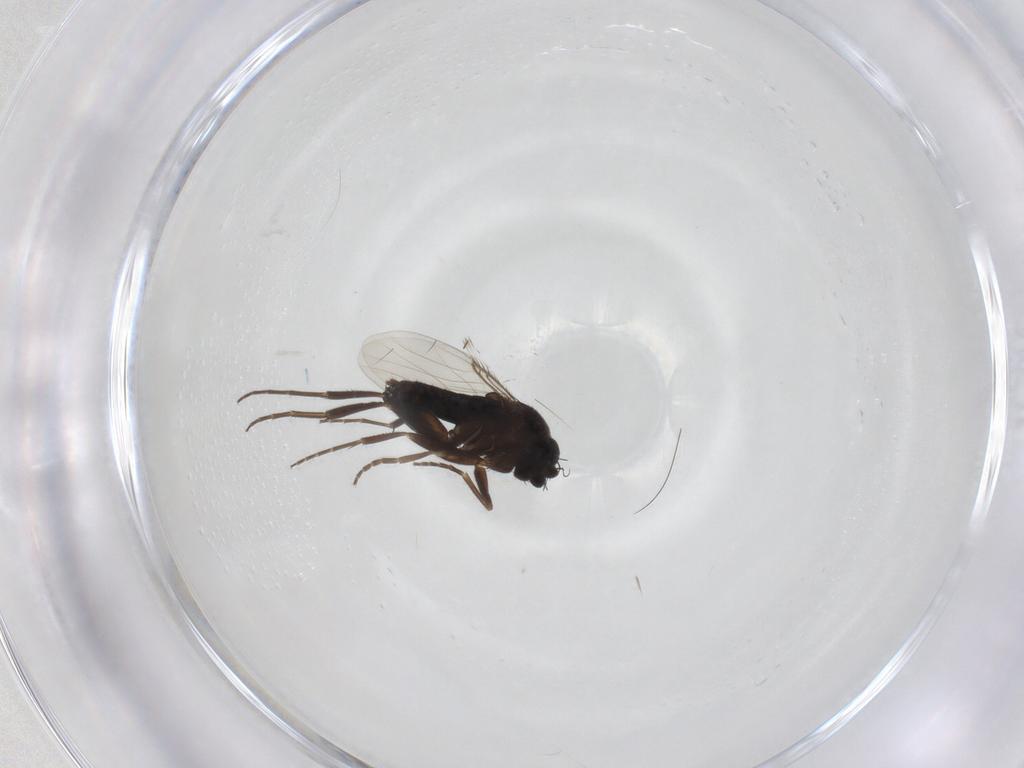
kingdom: Animalia
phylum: Arthropoda
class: Insecta
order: Diptera
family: Phoridae
